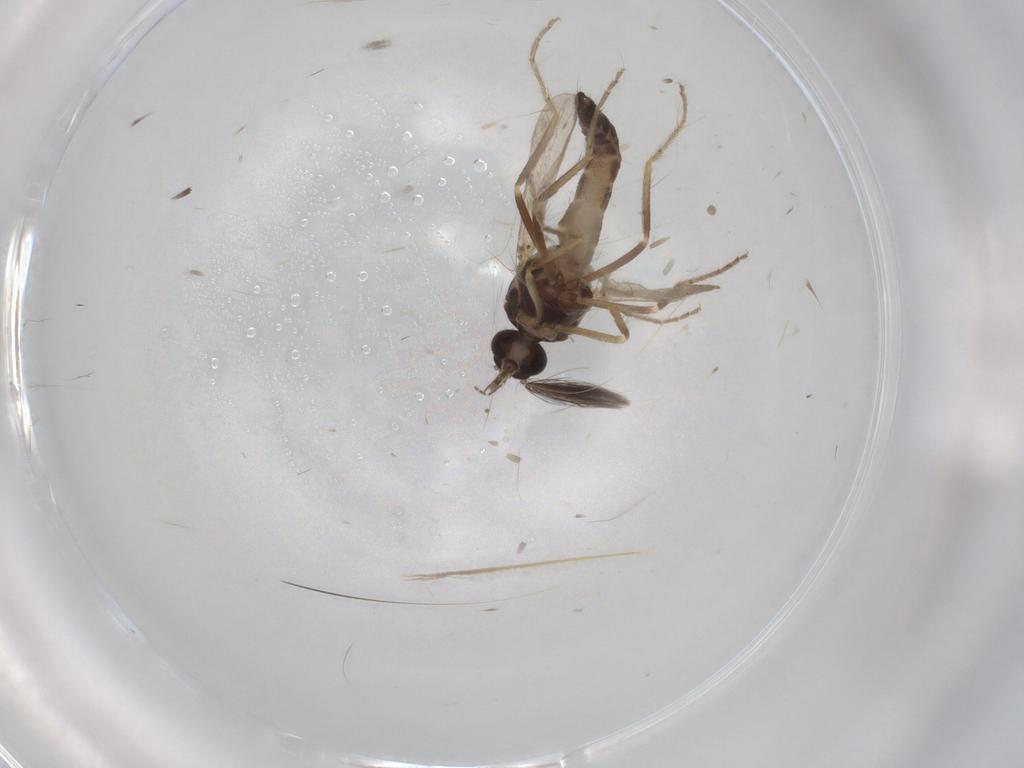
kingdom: Animalia
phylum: Arthropoda
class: Insecta
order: Diptera
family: Ceratopogonidae
